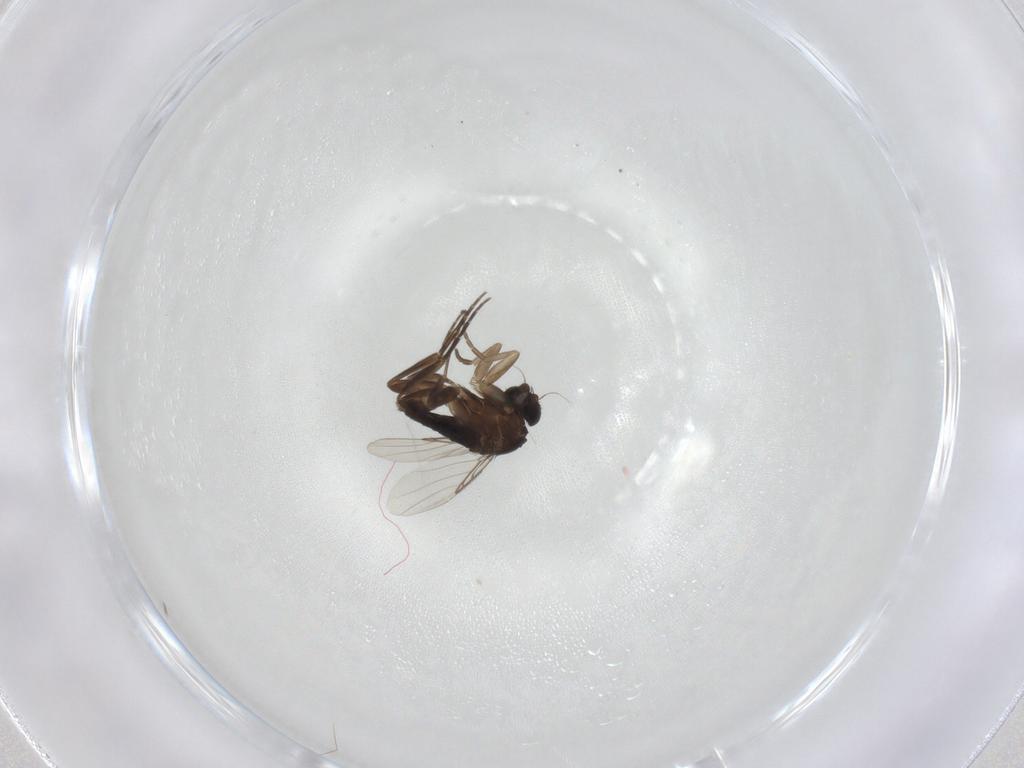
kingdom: Animalia
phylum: Arthropoda
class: Insecta
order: Diptera
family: Phoridae
